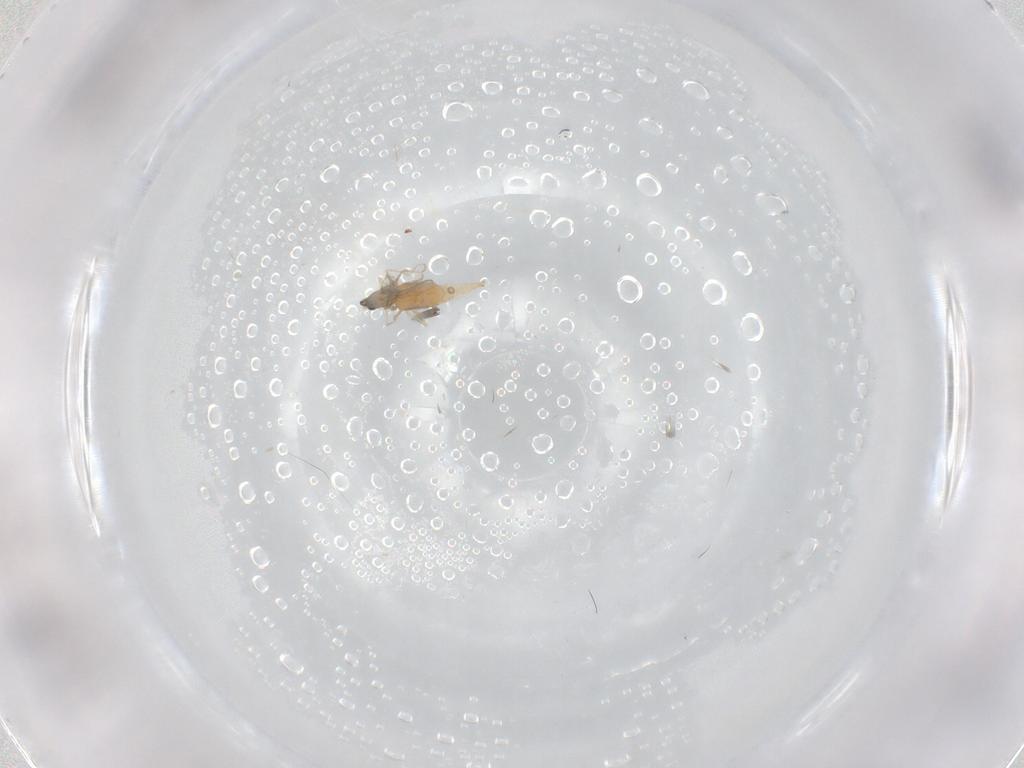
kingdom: Animalia
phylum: Arthropoda
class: Insecta
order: Diptera
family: Cecidomyiidae
